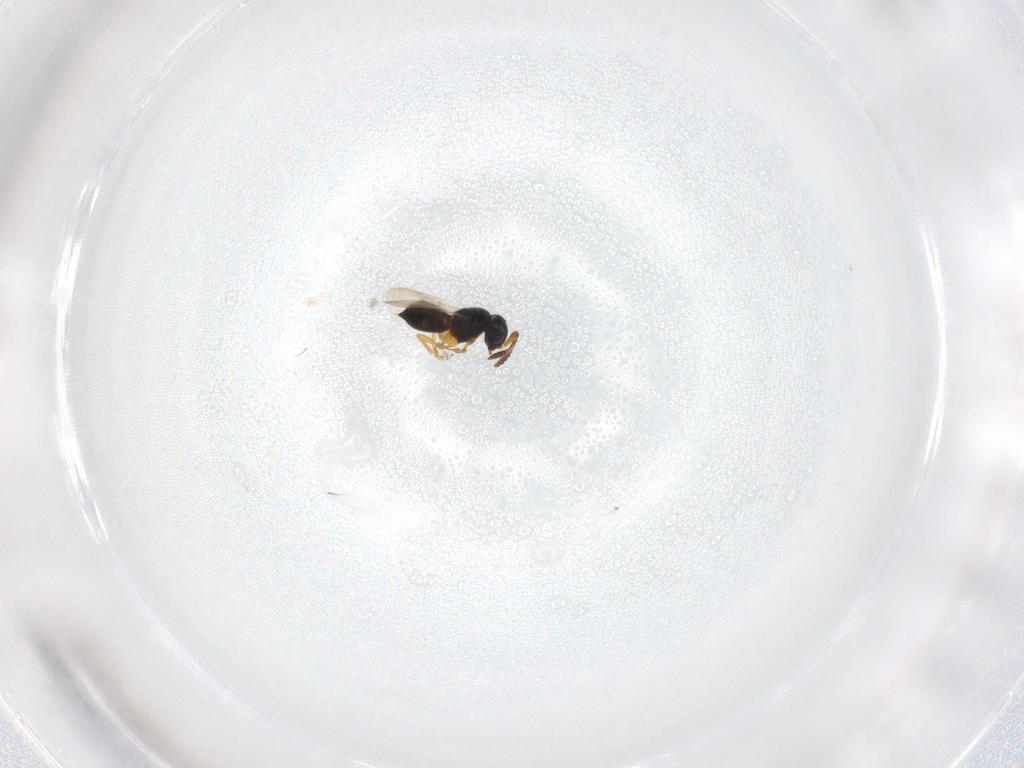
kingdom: Animalia
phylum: Arthropoda
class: Insecta
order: Hymenoptera
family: Scelionidae
